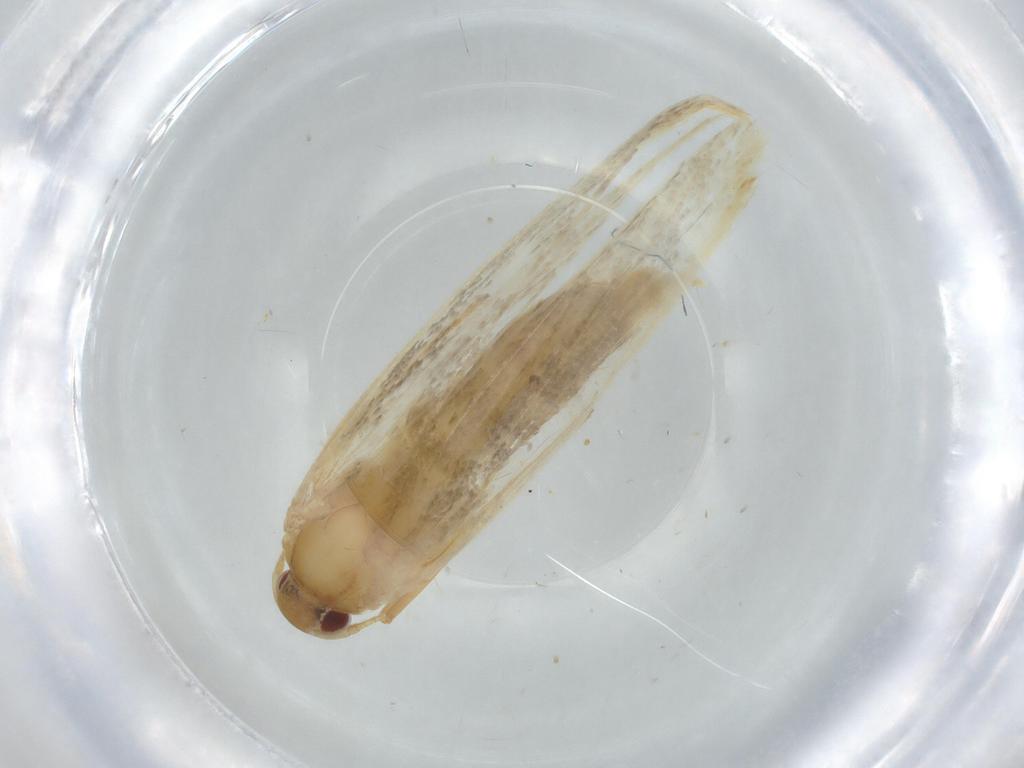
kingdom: Animalia
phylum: Arthropoda
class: Insecta
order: Lepidoptera
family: Cosmopterigidae
